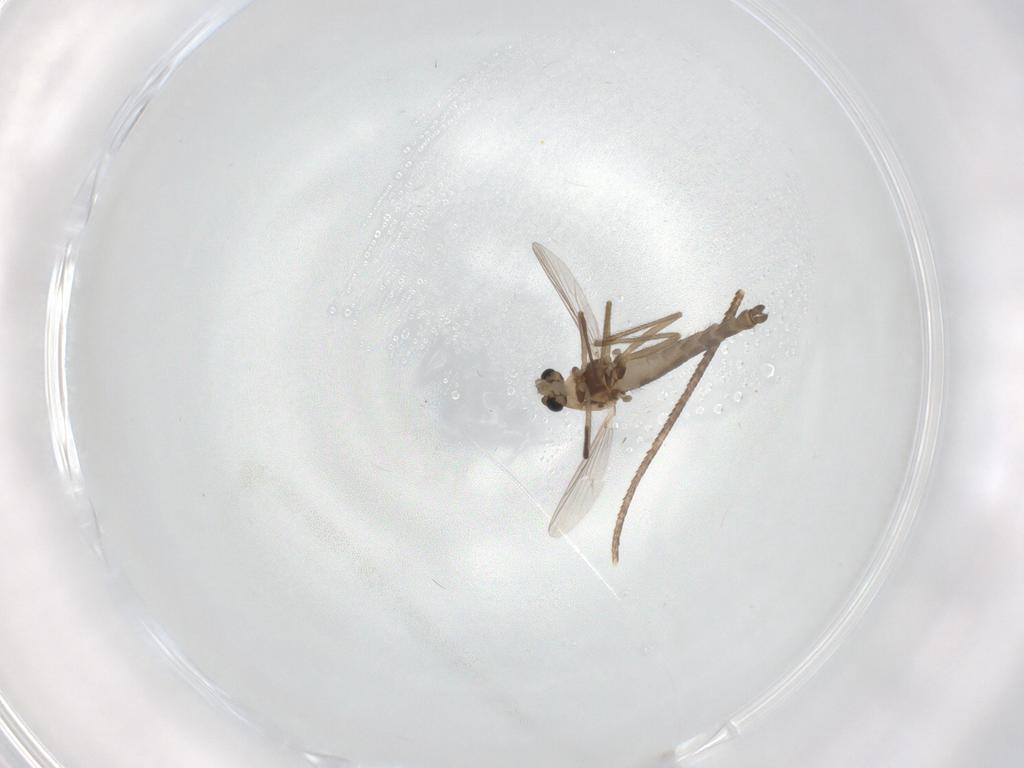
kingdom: Animalia
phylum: Arthropoda
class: Insecta
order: Diptera
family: Chironomidae
